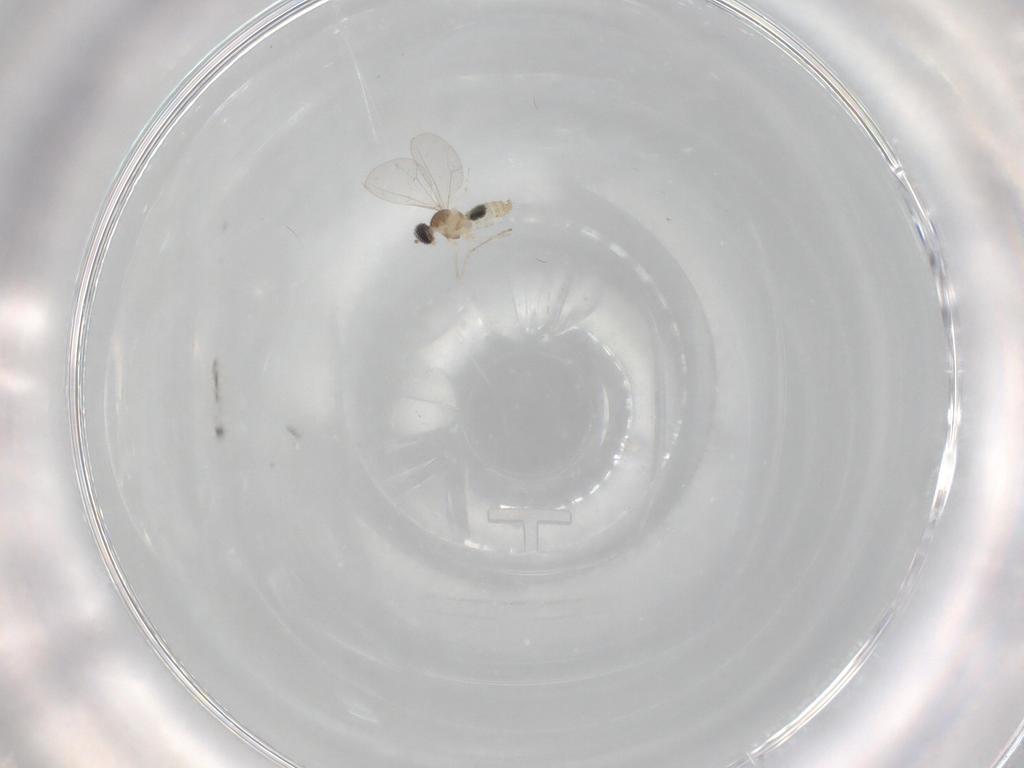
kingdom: Animalia
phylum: Arthropoda
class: Insecta
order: Diptera
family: Cecidomyiidae
